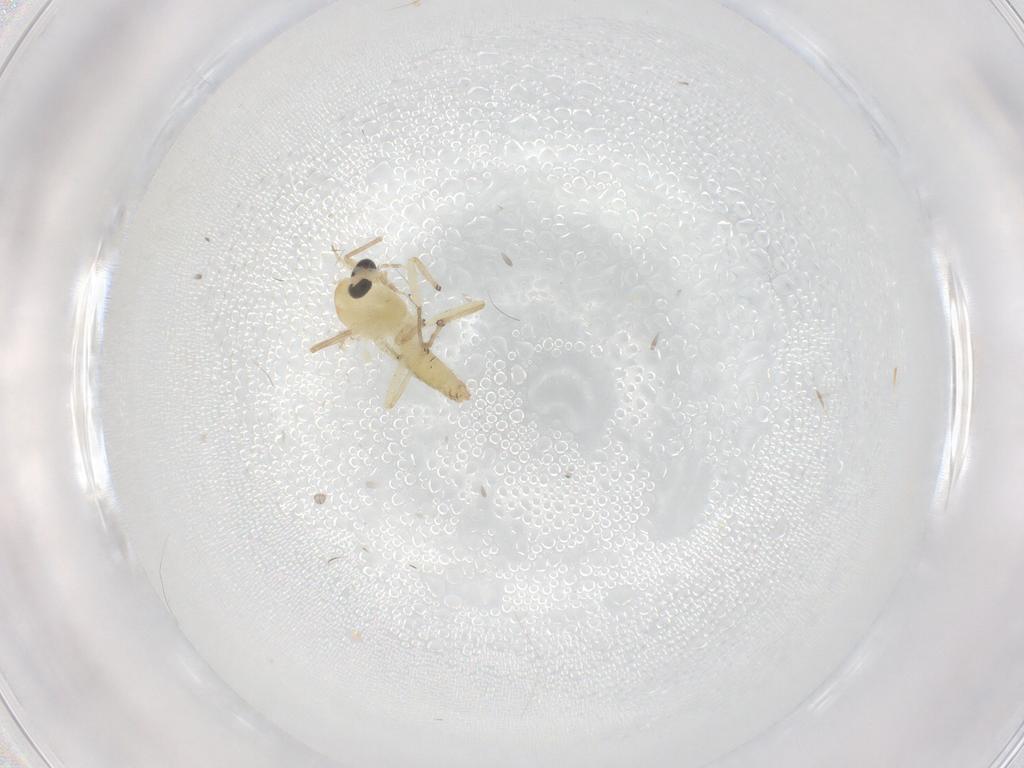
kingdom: Animalia
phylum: Arthropoda
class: Insecta
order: Diptera
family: Chironomidae
